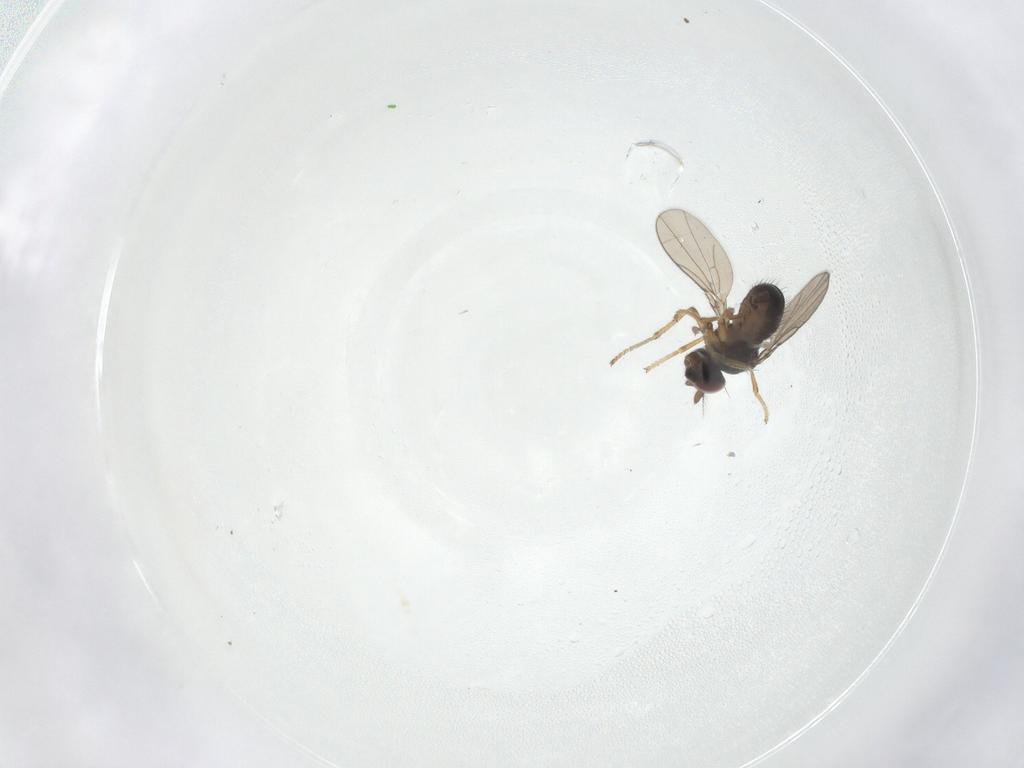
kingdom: Animalia
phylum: Arthropoda
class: Insecta
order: Diptera
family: Ephydridae
